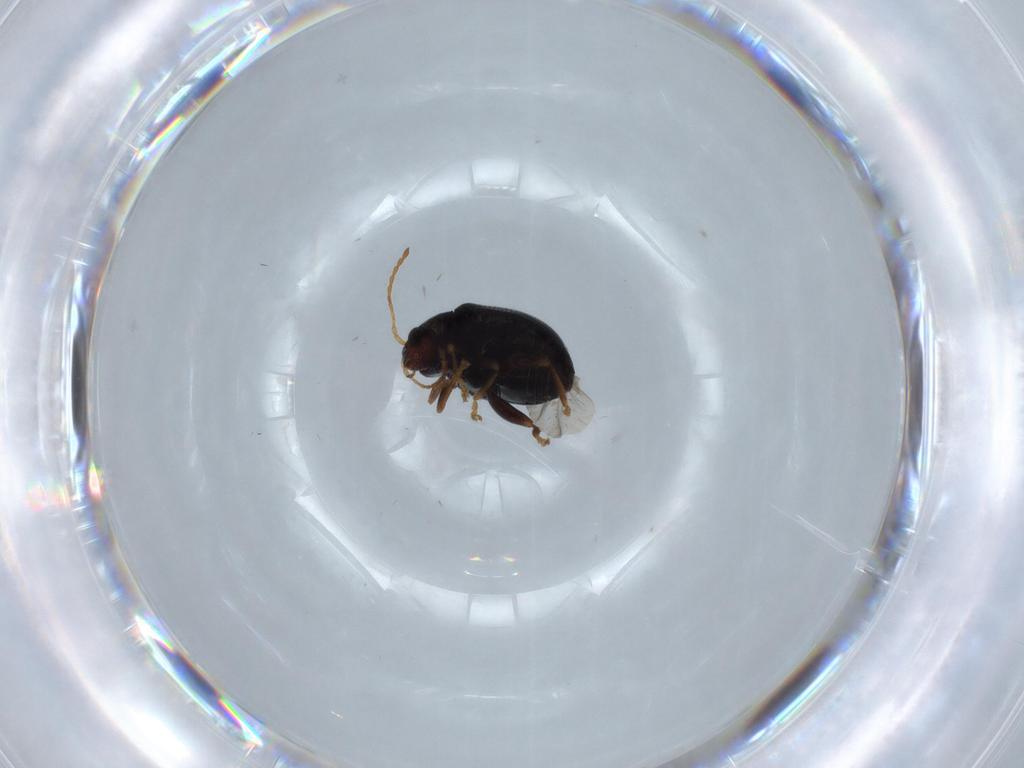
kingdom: Animalia
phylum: Arthropoda
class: Insecta
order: Coleoptera
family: Chrysomelidae
